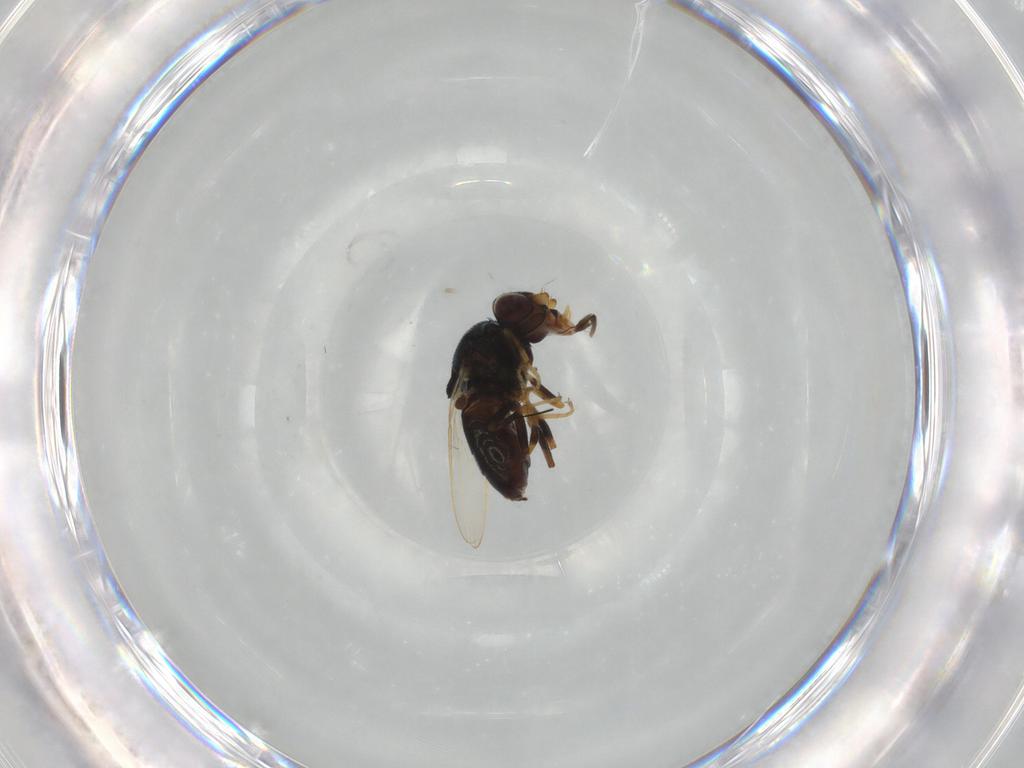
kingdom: Animalia
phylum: Arthropoda
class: Insecta
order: Diptera
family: Chloropidae
